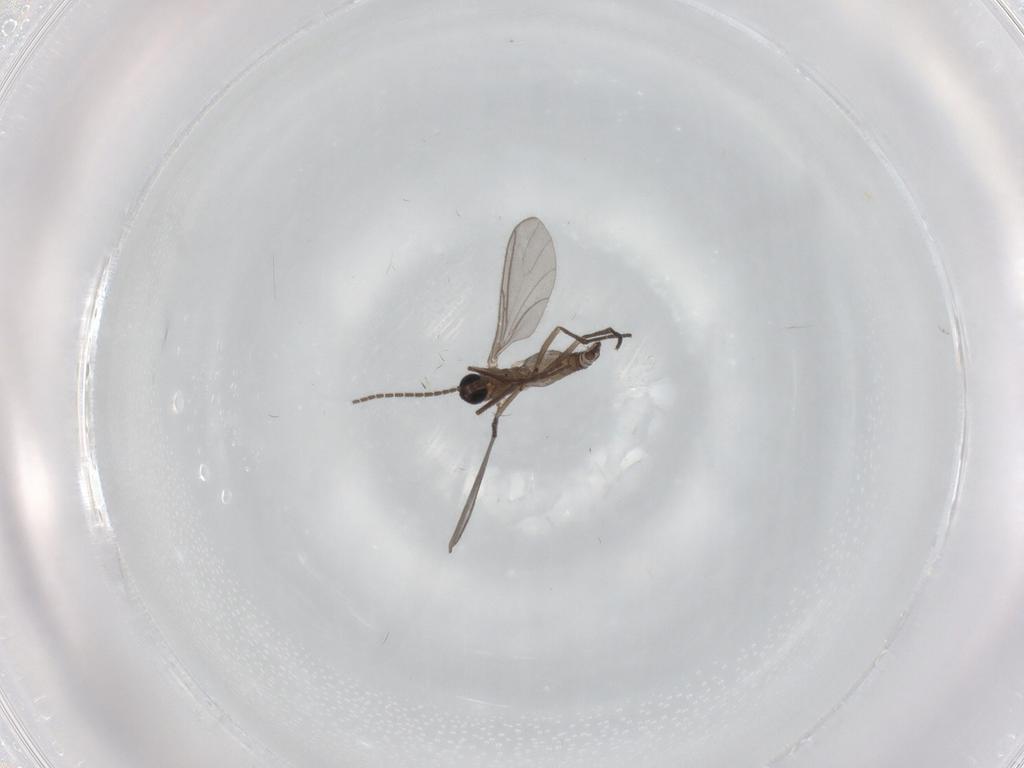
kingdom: Animalia
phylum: Arthropoda
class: Insecta
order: Diptera
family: Sciaridae
